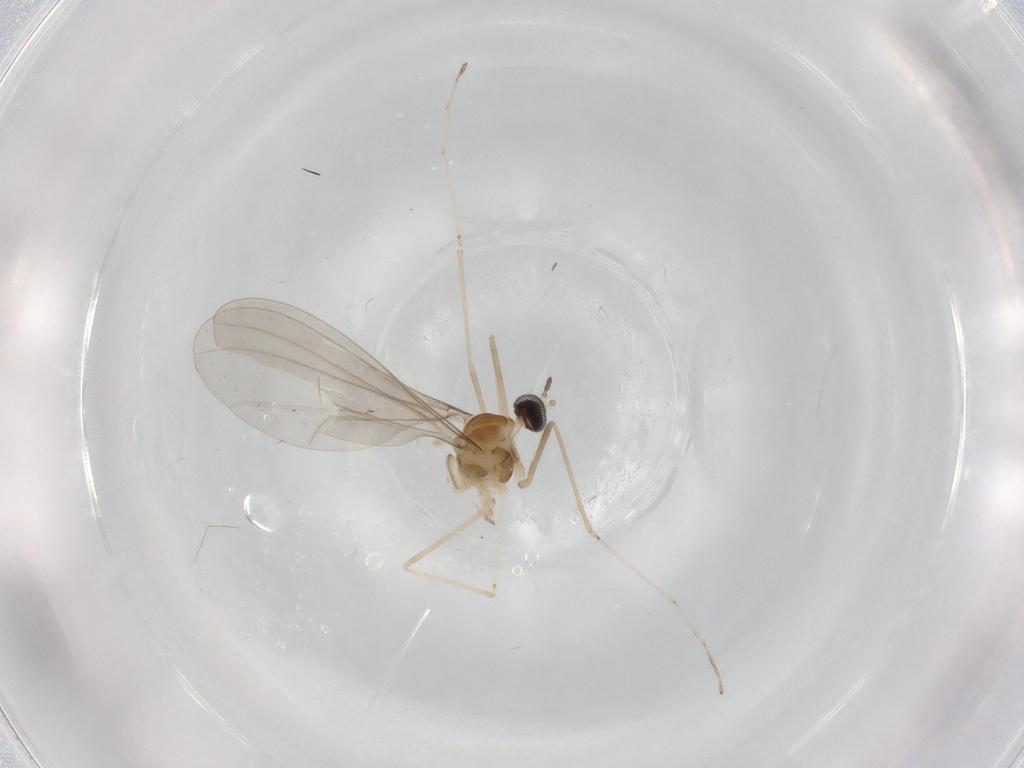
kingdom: Animalia
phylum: Arthropoda
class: Insecta
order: Diptera
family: Cecidomyiidae
